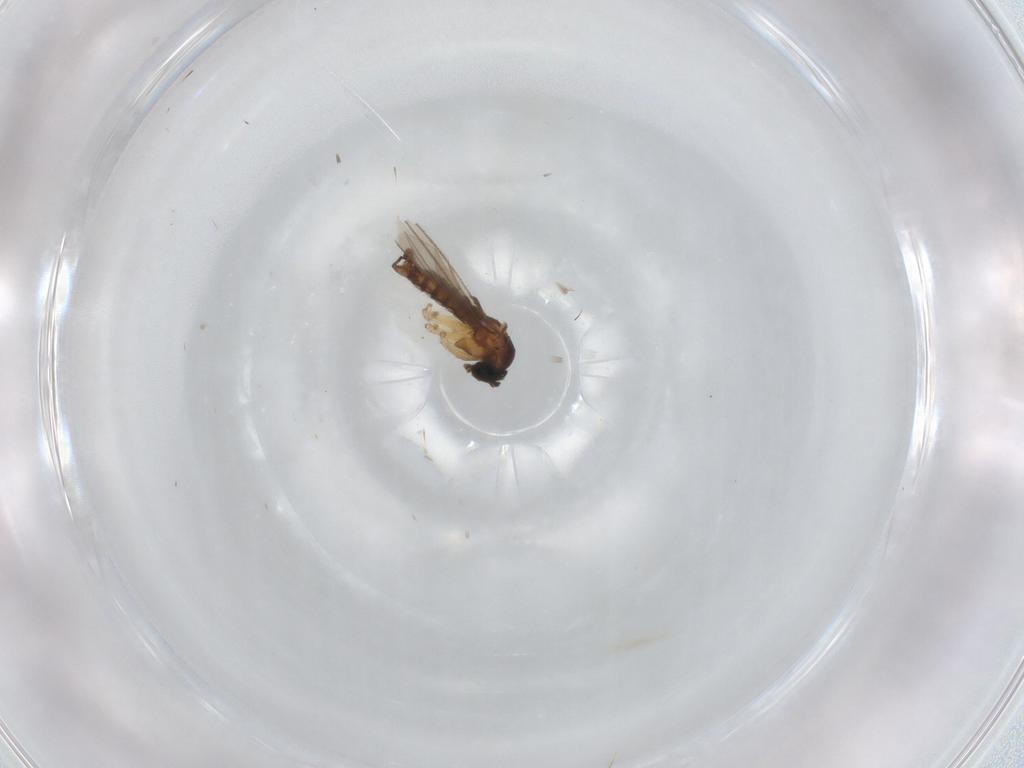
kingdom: Animalia
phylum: Arthropoda
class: Insecta
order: Diptera
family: Sciaridae
